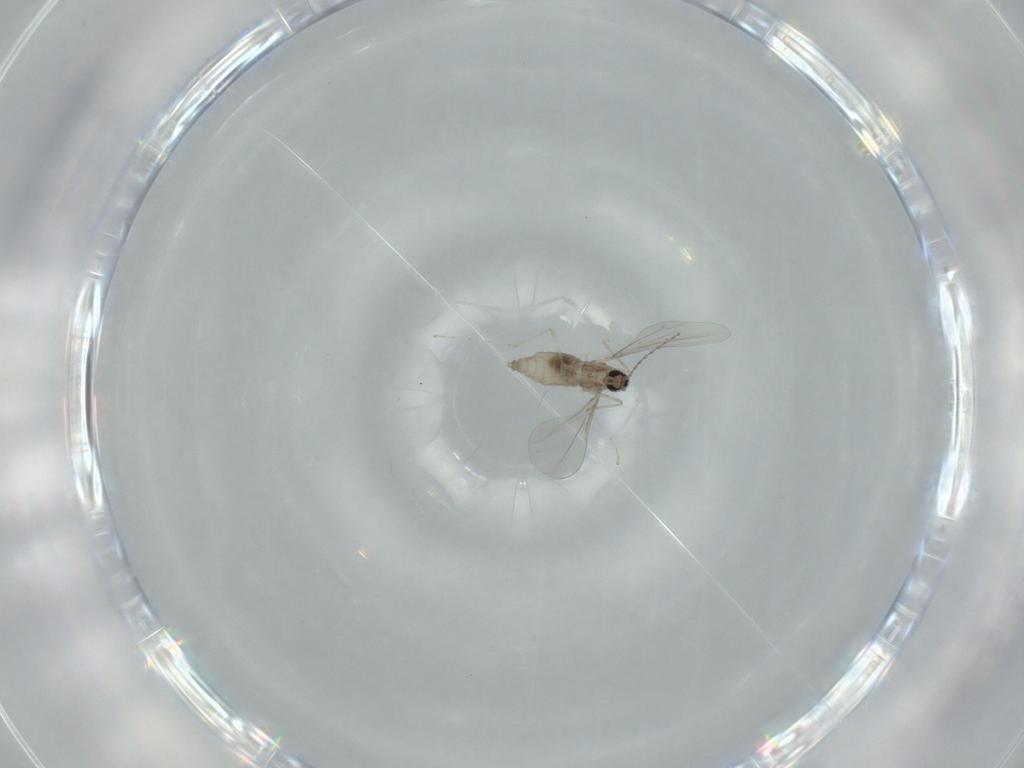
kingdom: Animalia
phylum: Arthropoda
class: Insecta
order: Diptera
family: Cecidomyiidae
